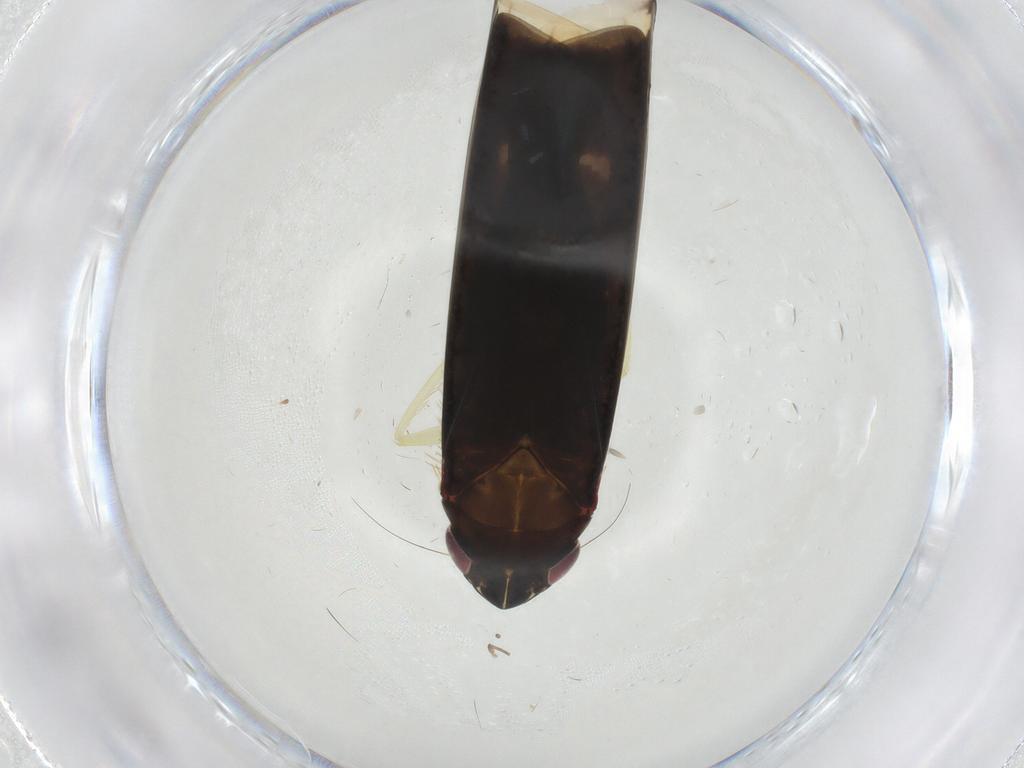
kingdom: Animalia
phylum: Arthropoda
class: Insecta
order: Hemiptera
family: Cicadellidae
